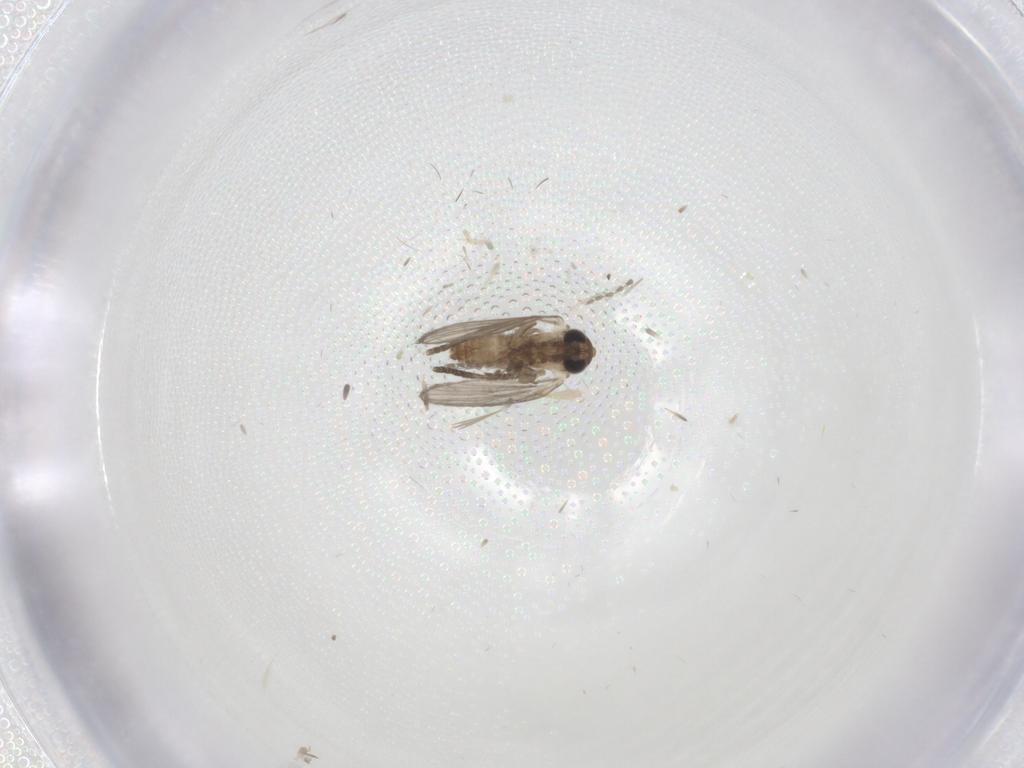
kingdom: Animalia
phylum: Arthropoda
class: Insecta
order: Diptera
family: Psychodidae
